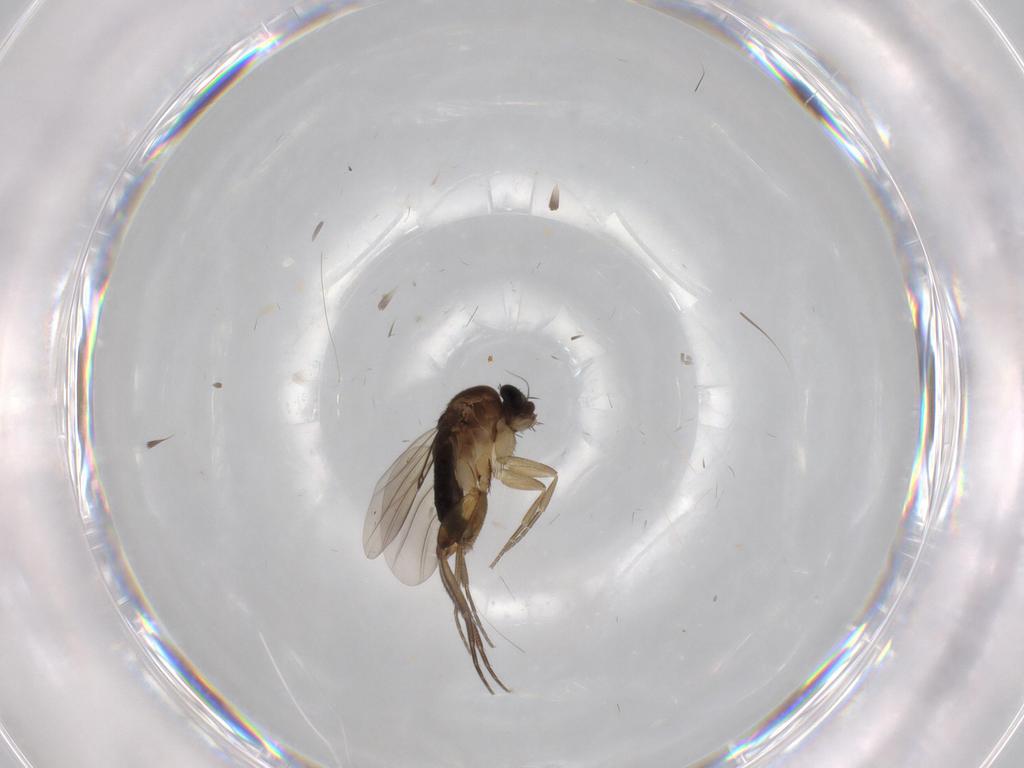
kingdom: Animalia
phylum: Arthropoda
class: Insecta
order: Diptera
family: Phoridae
